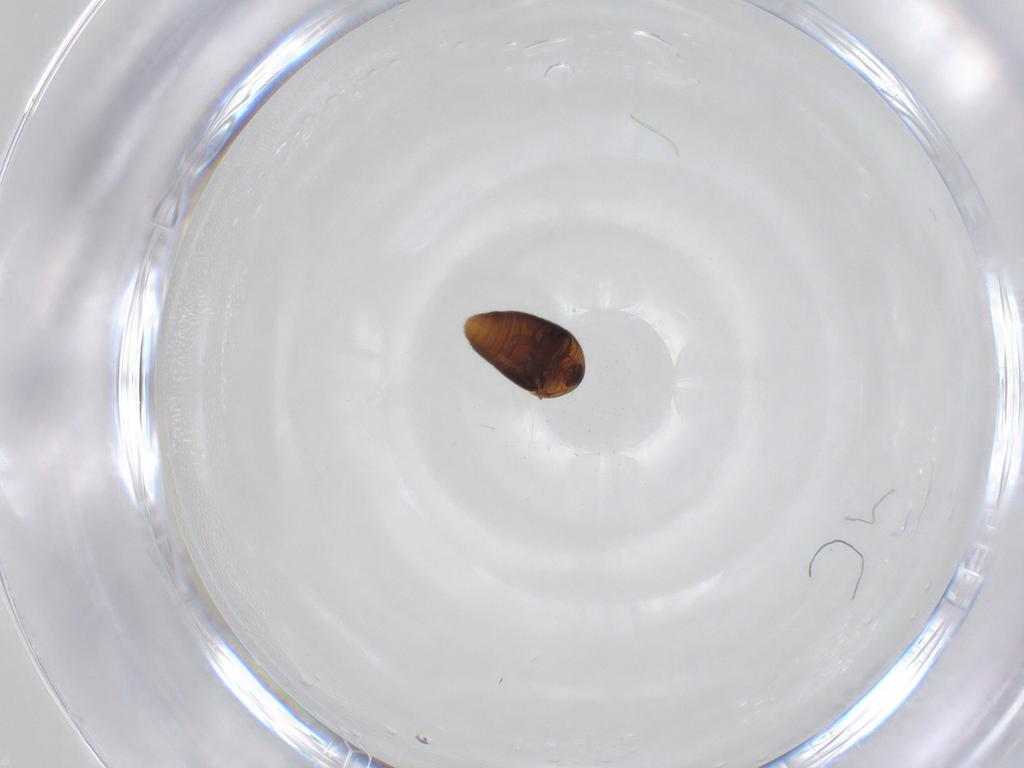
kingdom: Animalia
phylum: Arthropoda
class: Insecta
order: Coleoptera
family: Corylophidae
